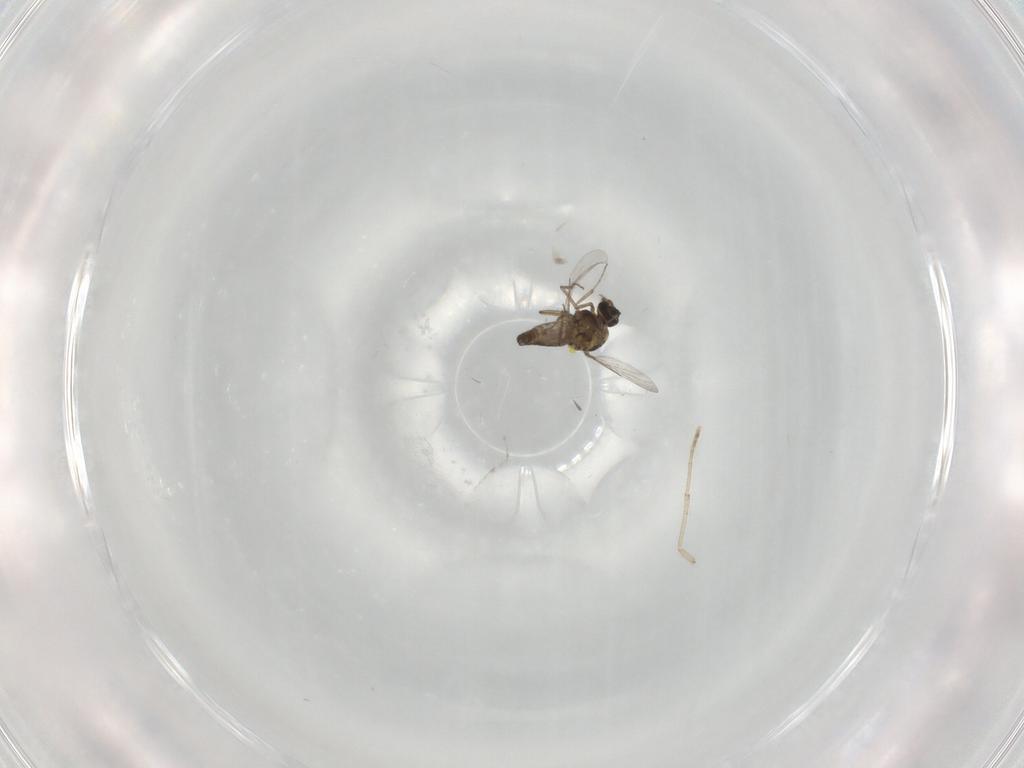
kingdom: Animalia
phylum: Arthropoda
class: Insecta
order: Diptera
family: Ceratopogonidae
